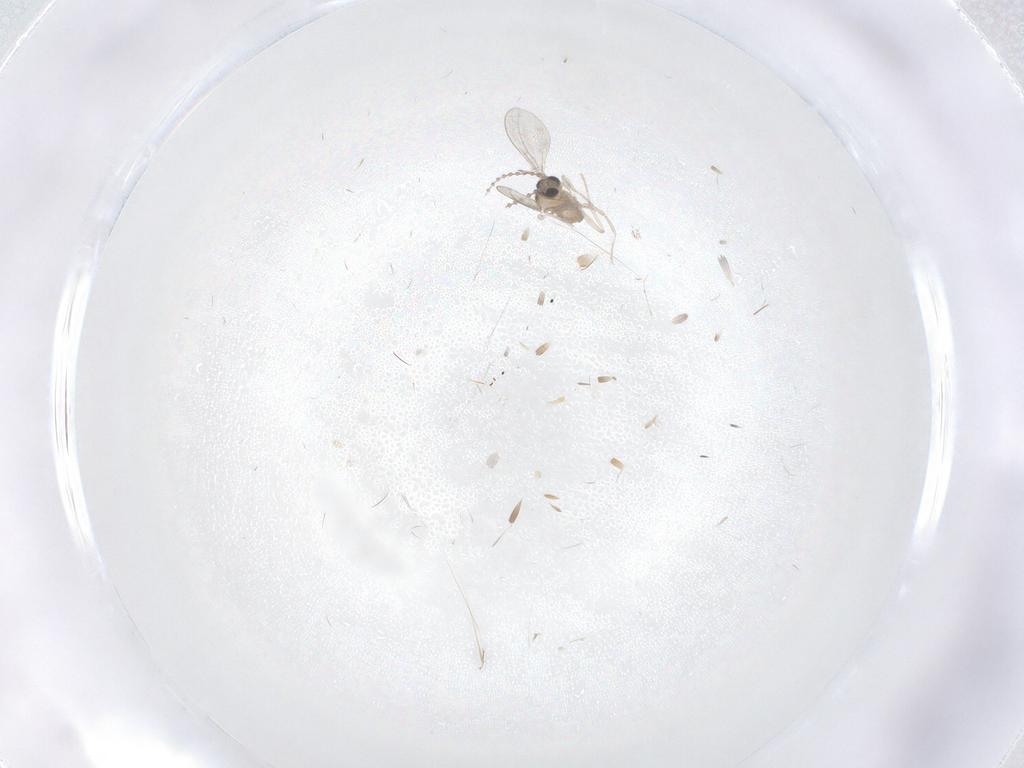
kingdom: Animalia
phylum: Arthropoda
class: Insecta
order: Diptera
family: Cecidomyiidae
